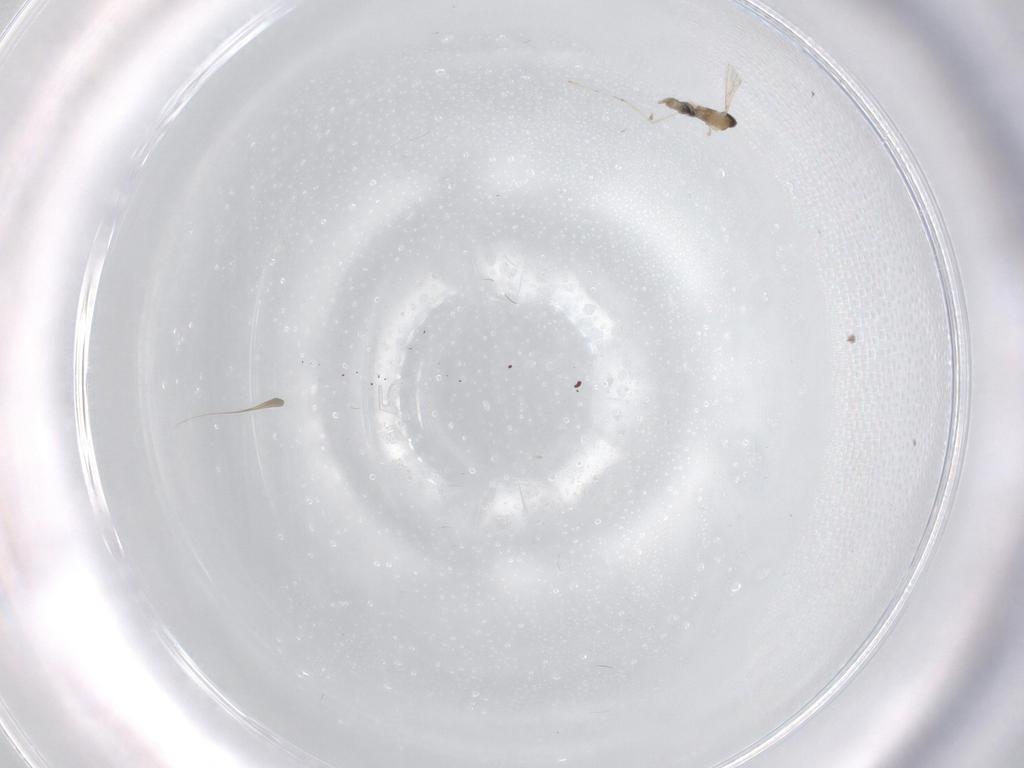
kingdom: Animalia
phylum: Arthropoda
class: Insecta
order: Diptera
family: Cecidomyiidae
